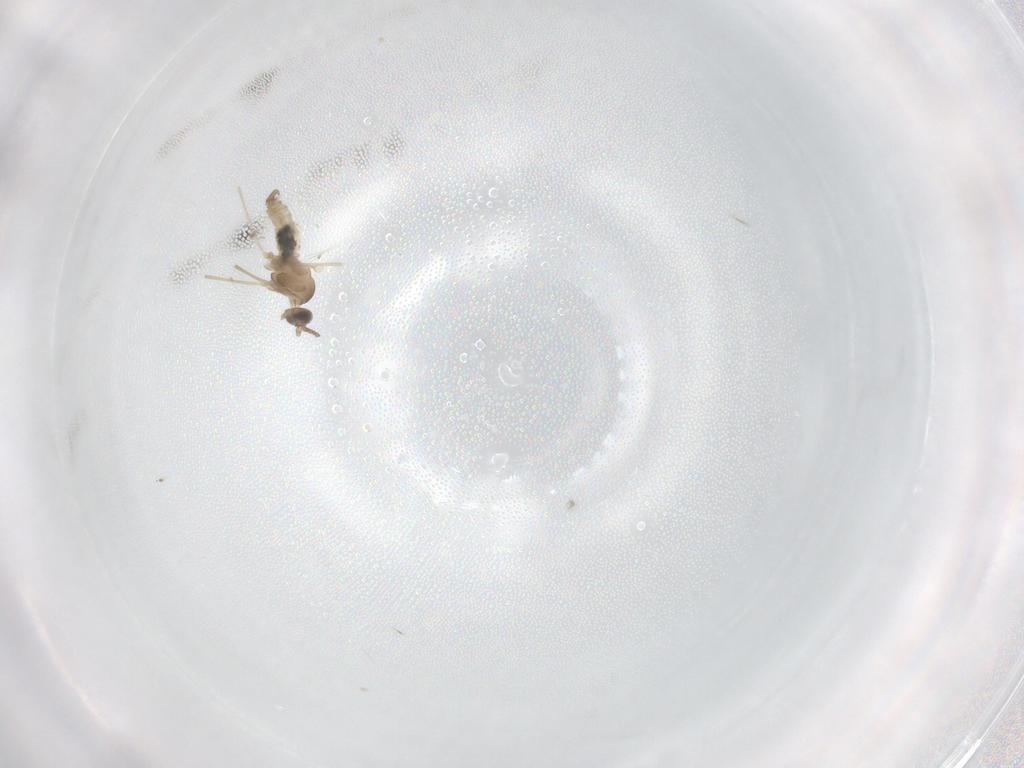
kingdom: Animalia
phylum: Arthropoda
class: Insecta
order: Diptera
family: Cecidomyiidae
